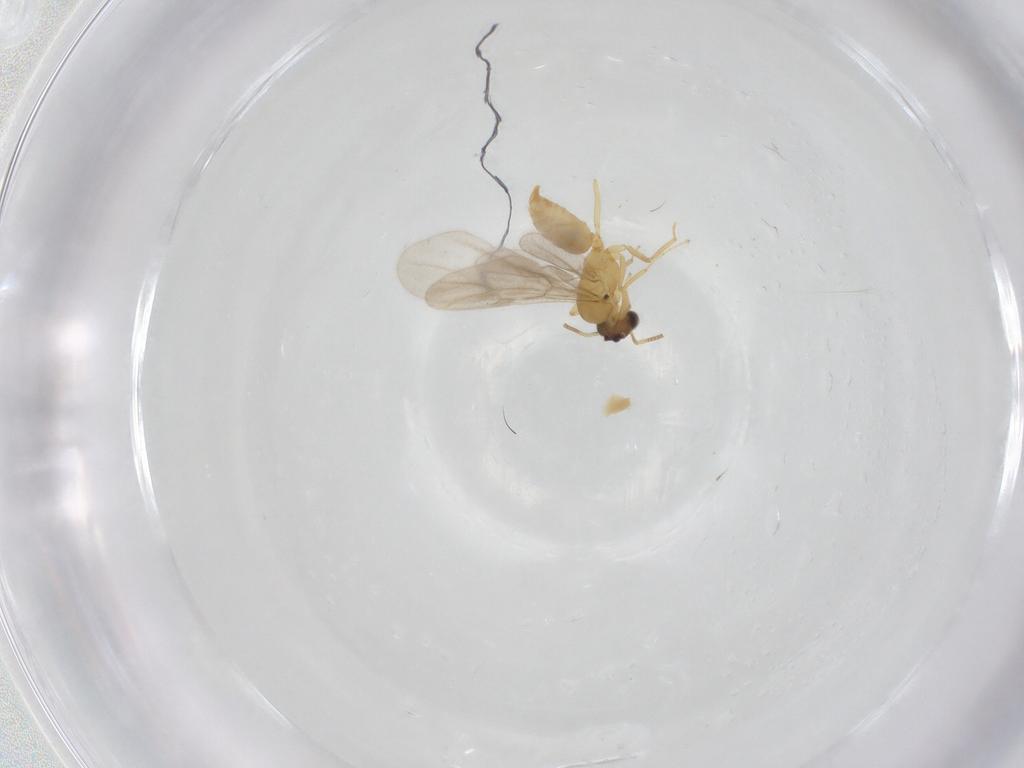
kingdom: Animalia
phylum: Arthropoda
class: Insecta
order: Hymenoptera
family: Formicidae
